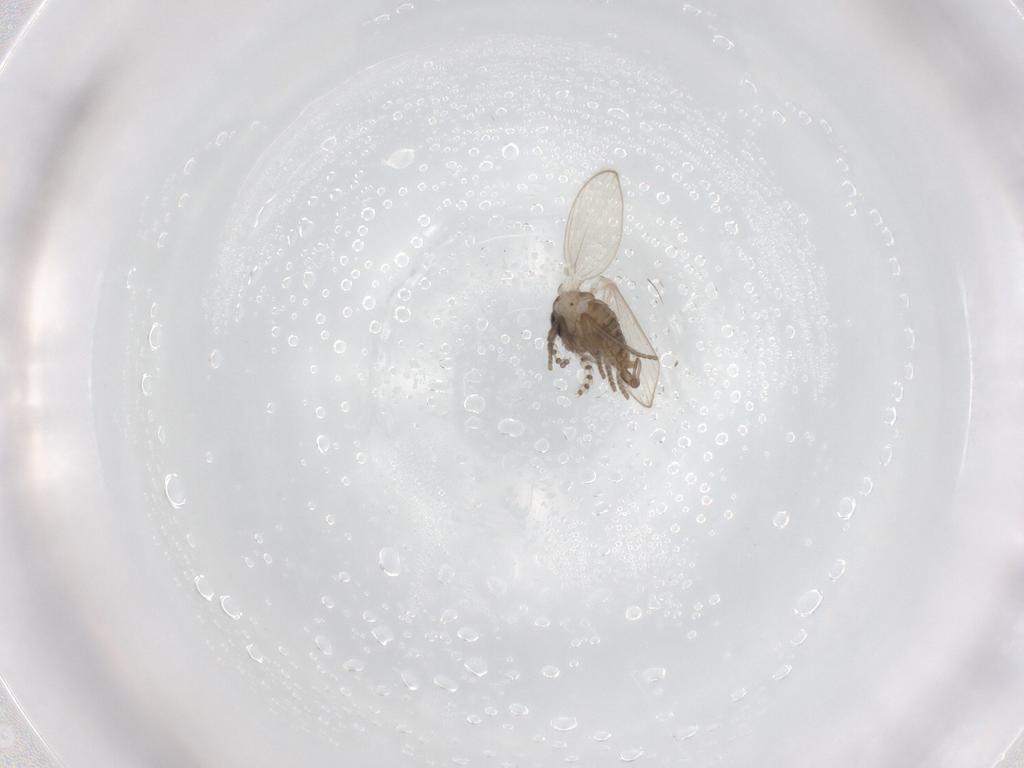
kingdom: Animalia
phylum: Arthropoda
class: Insecta
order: Diptera
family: Psychodidae
